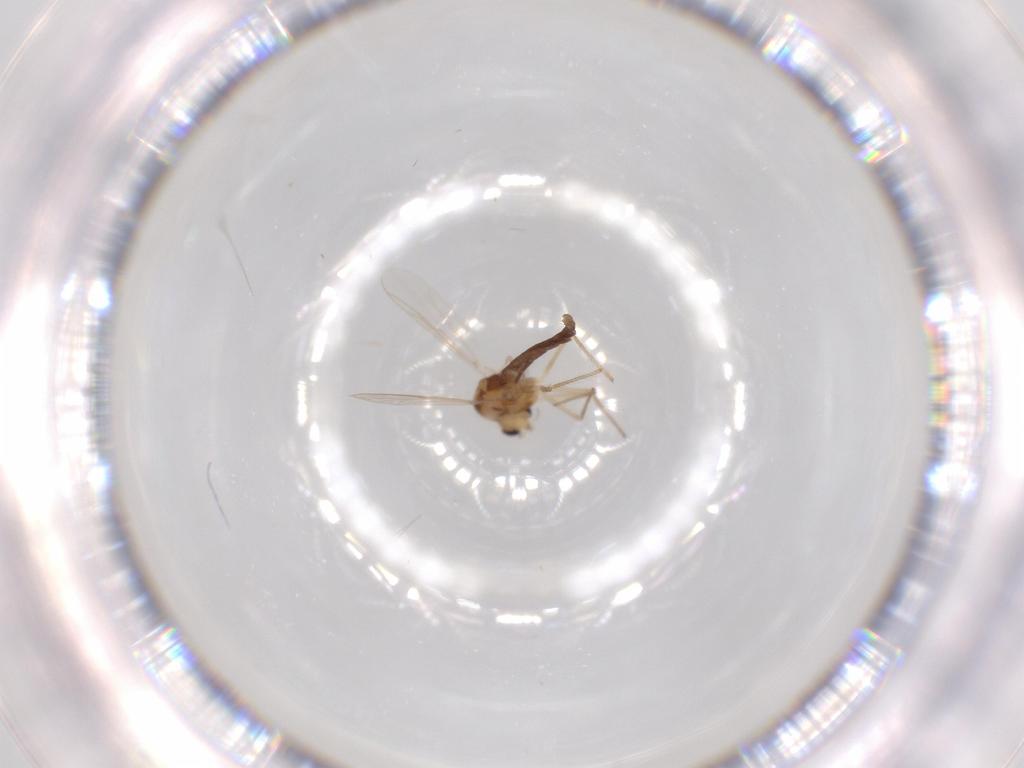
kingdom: Animalia
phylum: Arthropoda
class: Insecta
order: Diptera
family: Chironomidae
